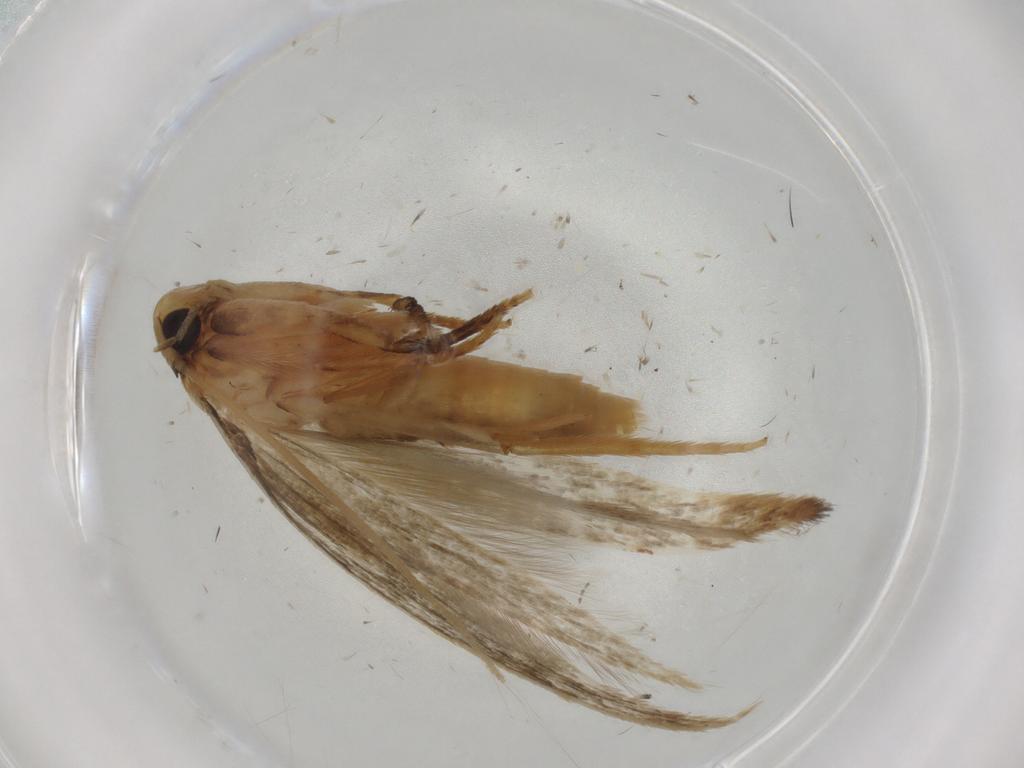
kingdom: Animalia
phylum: Arthropoda
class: Insecta
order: Lepidoptera
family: Tineidae
